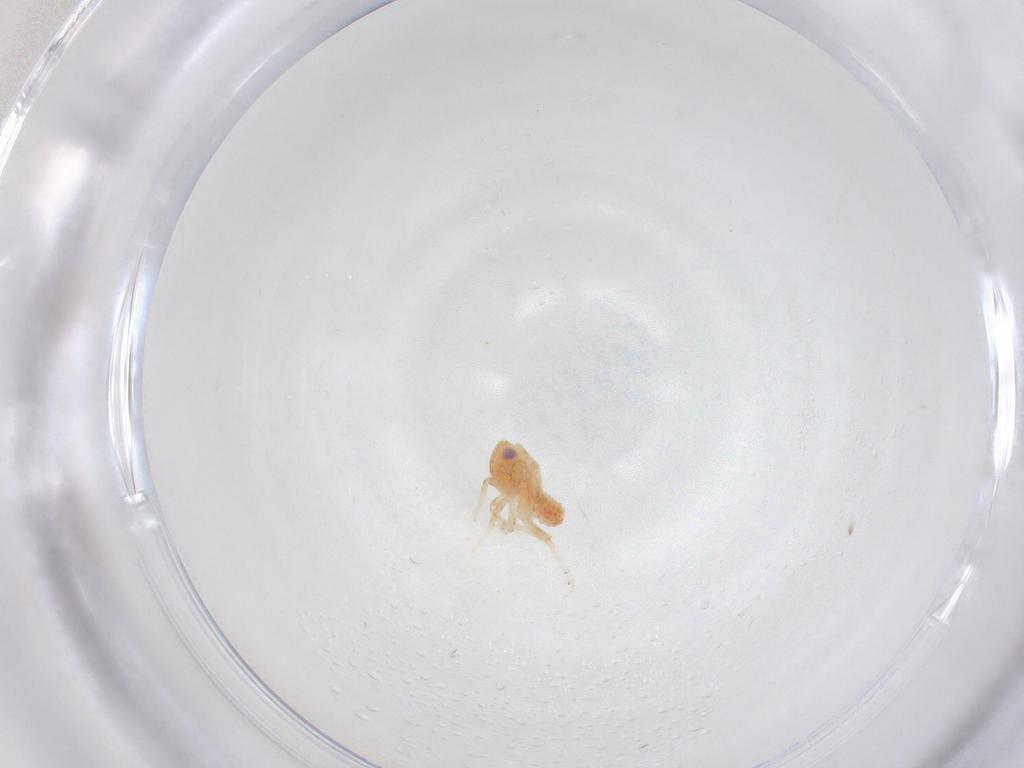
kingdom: Animalia
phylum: Arthropoda
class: Insecta
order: Hemiptera
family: Issidae
